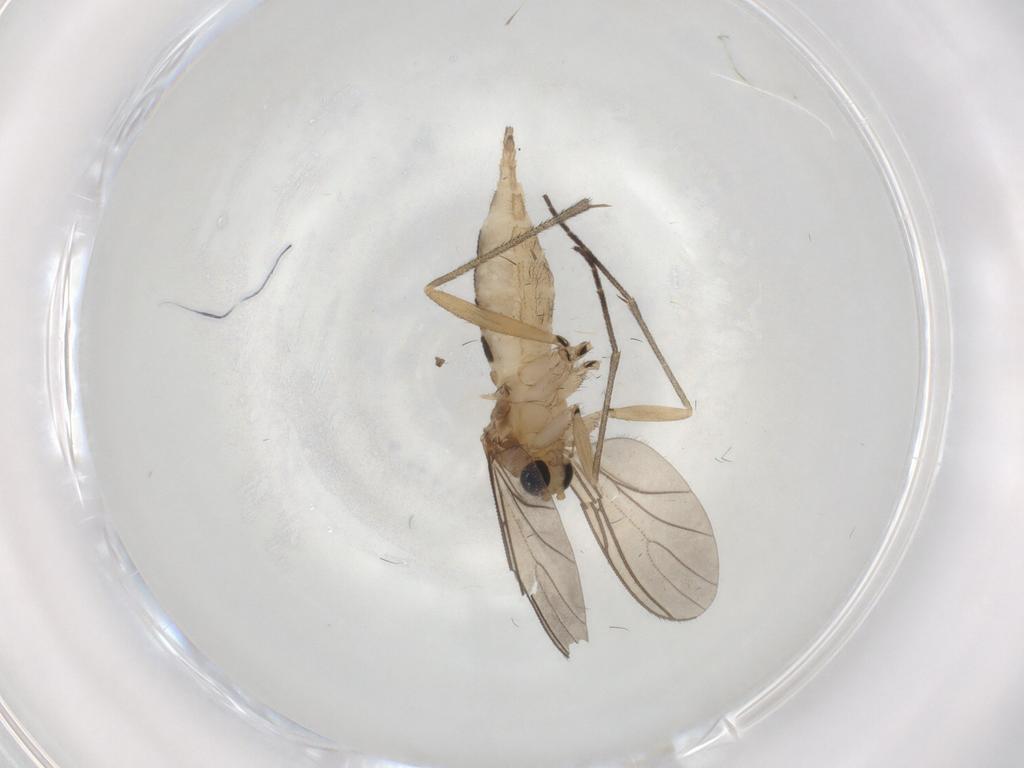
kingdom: Animalia
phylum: Arthropoda
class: Insecta
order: Diptera
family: Sciaridae
